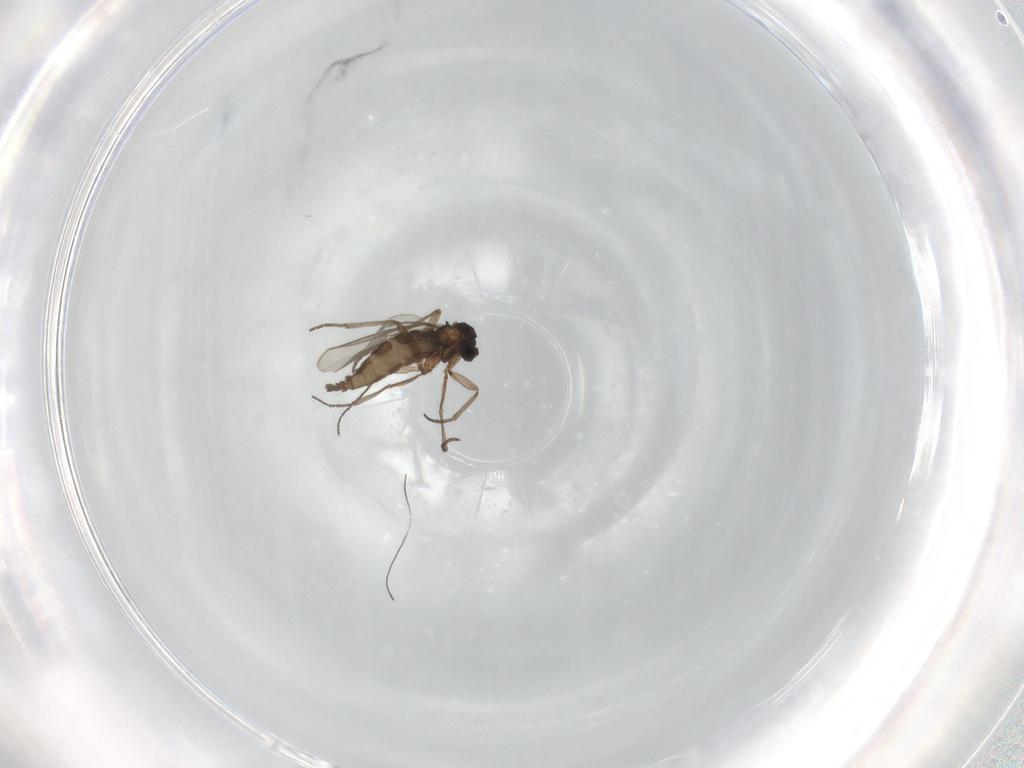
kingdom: Animalia
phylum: Arthropoda
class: Insecta
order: Diptera
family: Sciaridae
